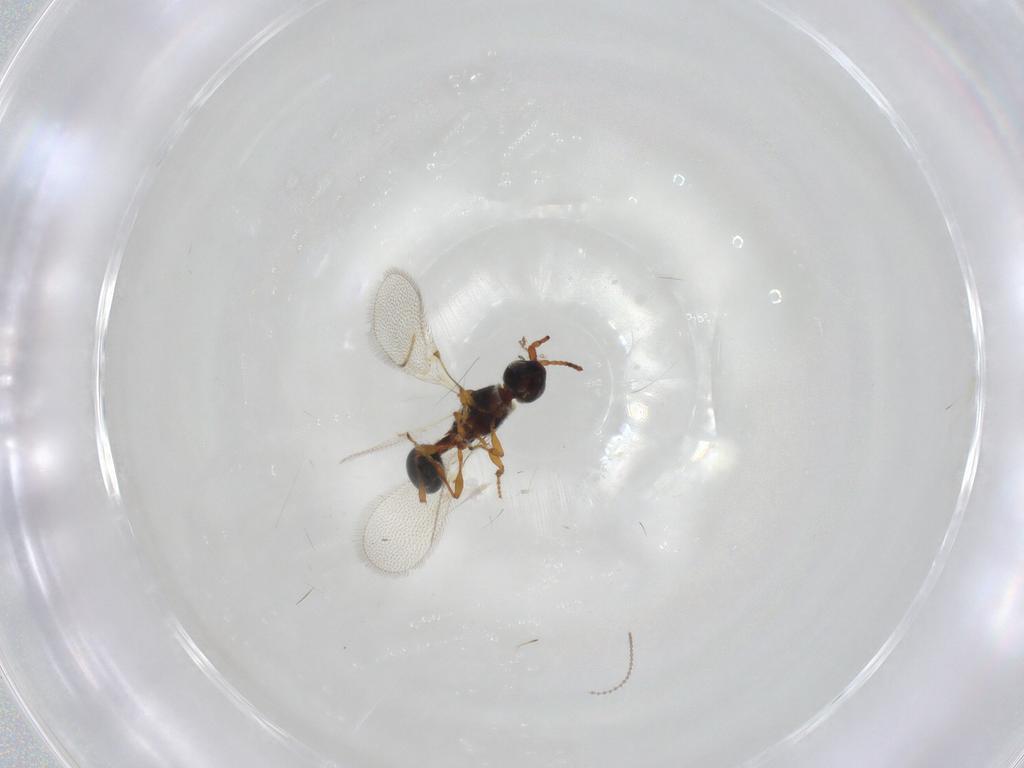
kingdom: Animalia
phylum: Arthropoda
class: Insecta
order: Hymenoptera
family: Diapriidae
